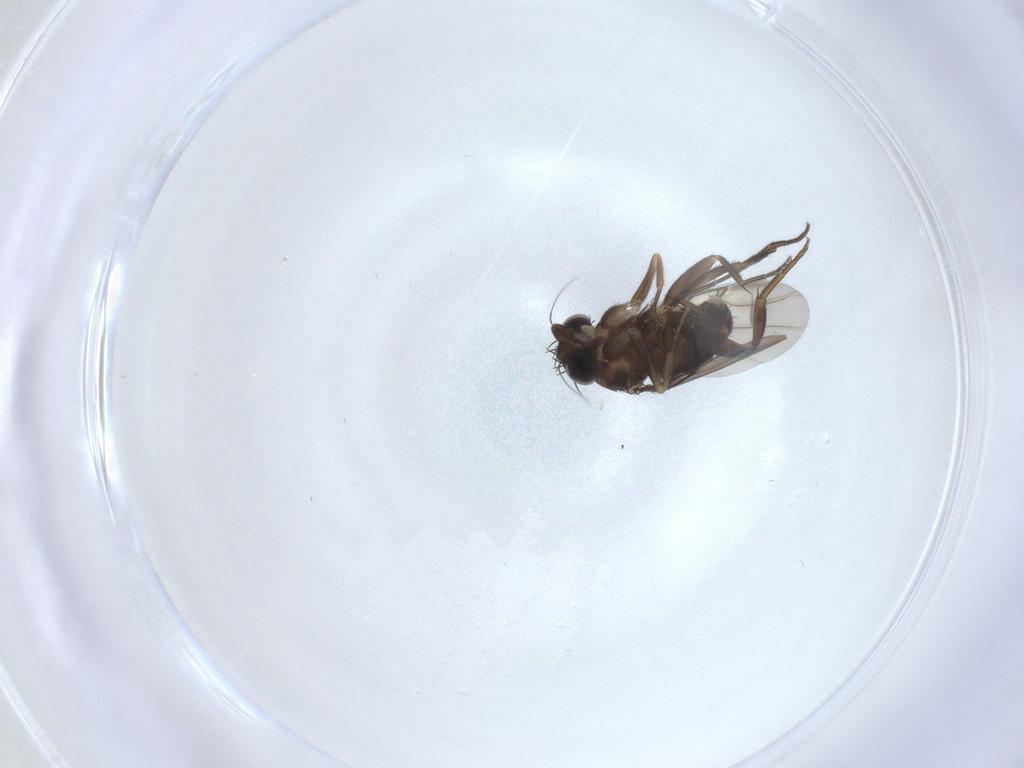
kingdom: Animalia
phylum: Arthropoda
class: Insecta
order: Diptera
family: Phoridae
